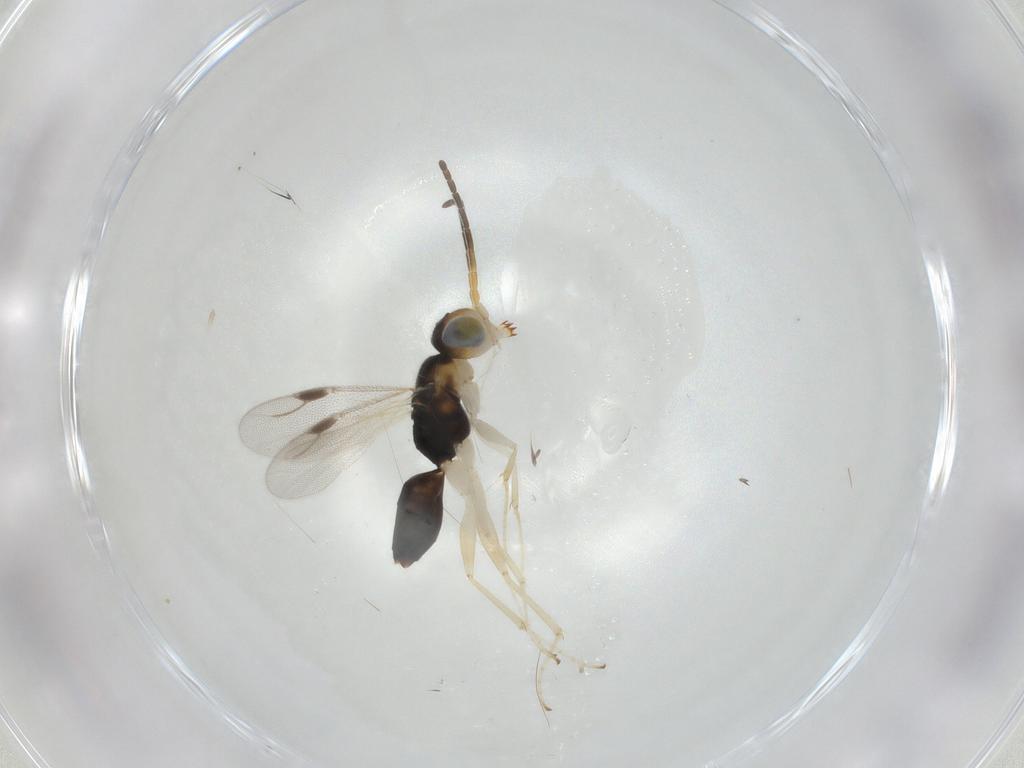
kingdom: Animalia
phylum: Arthropoda
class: Insecta
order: Hymenoptera
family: Dryinidae
